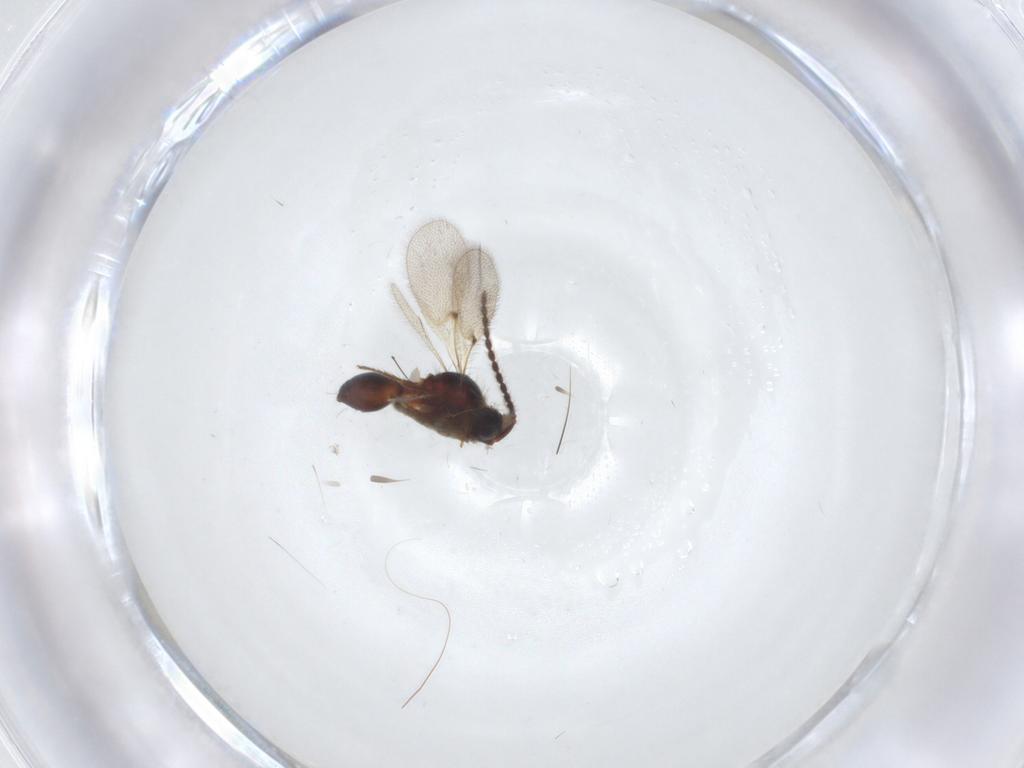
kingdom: Animalia
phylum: Arthropoda
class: Insecta
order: Hymenoptera
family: Diapriidae
